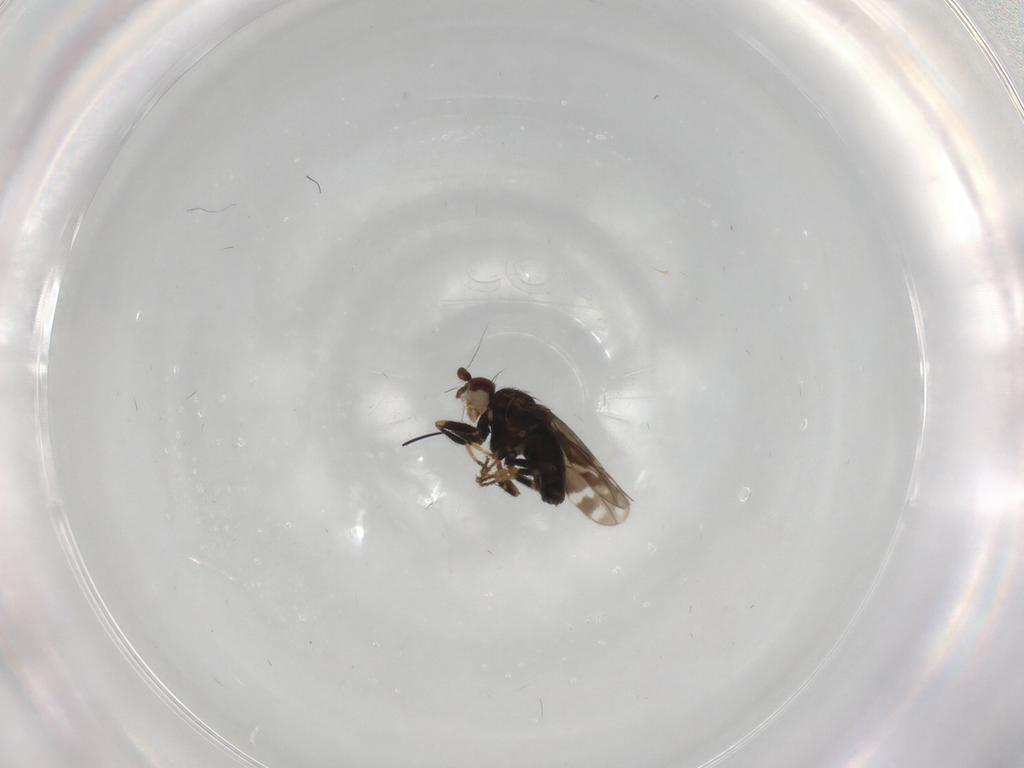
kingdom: Animalia
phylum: Arthropoda
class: Insecta
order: Diptera
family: Sphaeroceridae
